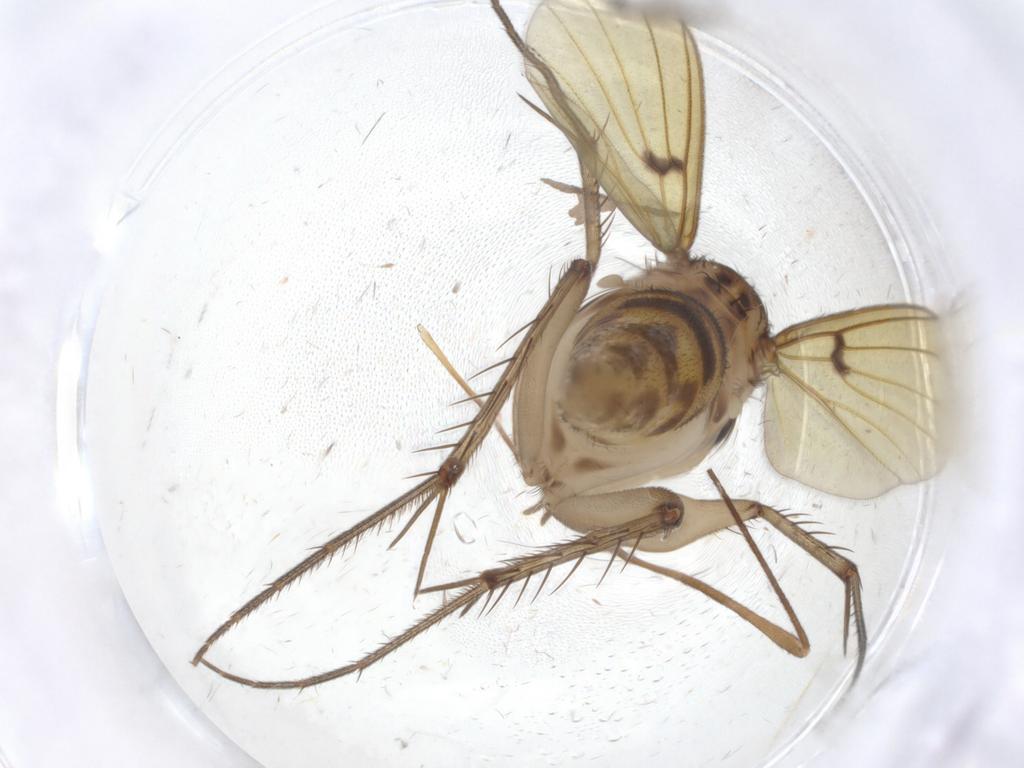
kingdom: Animalia
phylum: Arthropoda
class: Insecta
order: Diptera
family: Mycetophilidae
